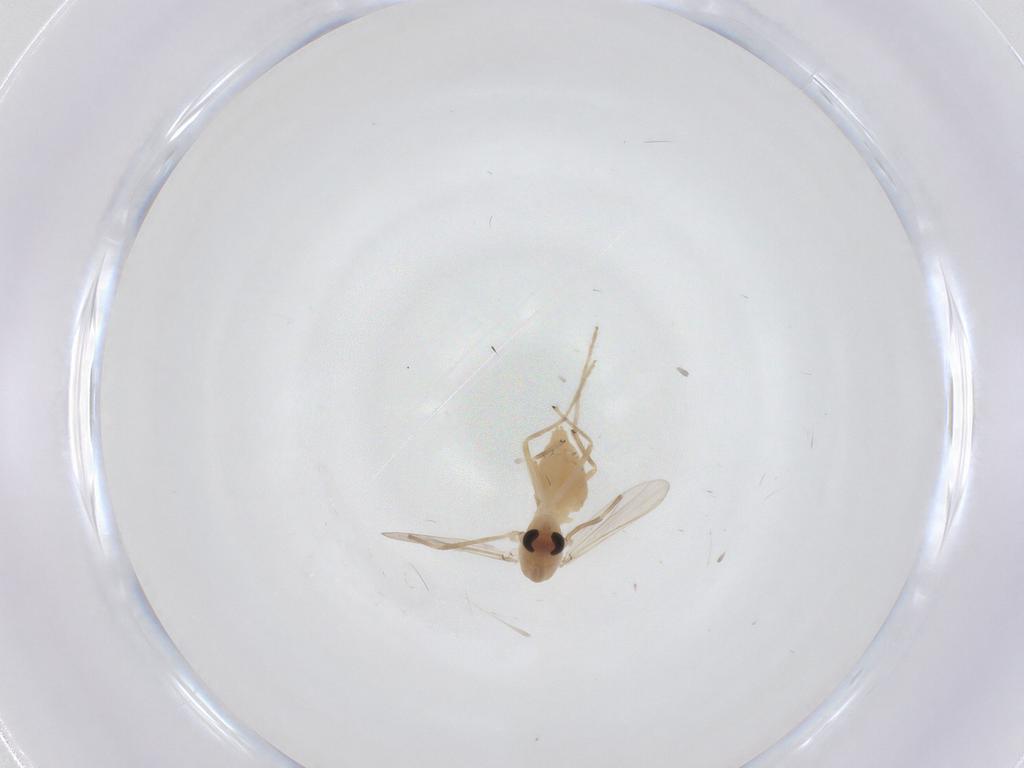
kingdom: Animalia
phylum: Arthropoda
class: Insecta
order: Diptera
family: Chironomidae
